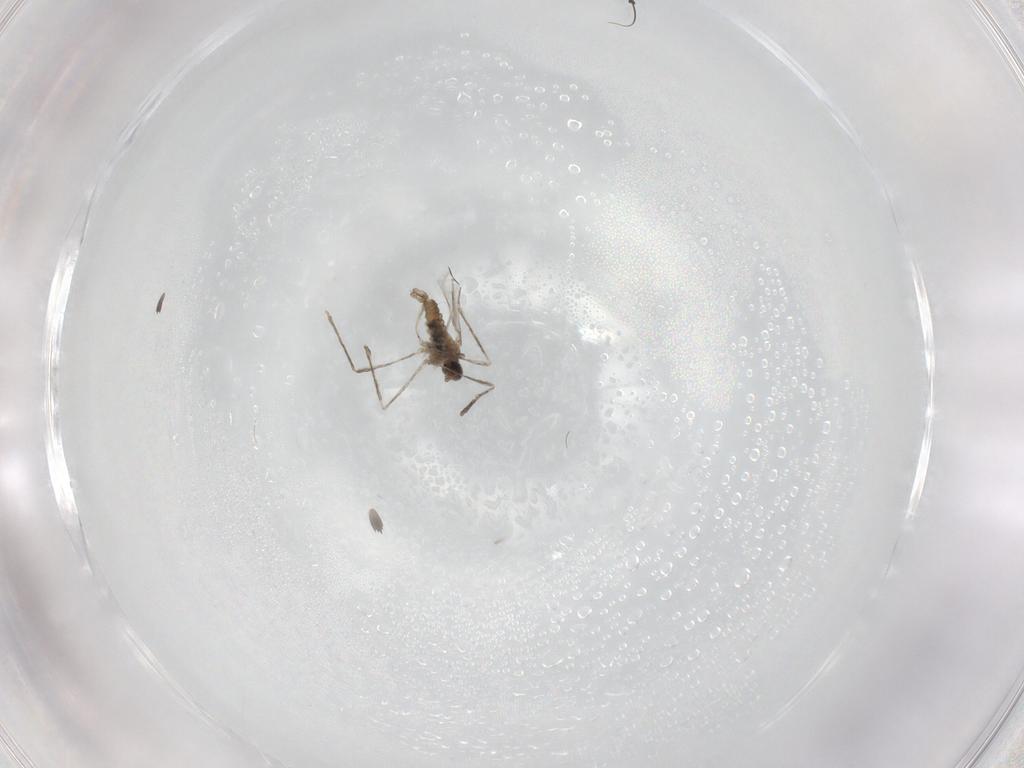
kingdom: Animalia
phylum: Arthropoda
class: Insecta
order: Diptera
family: Cecidomyiidae
